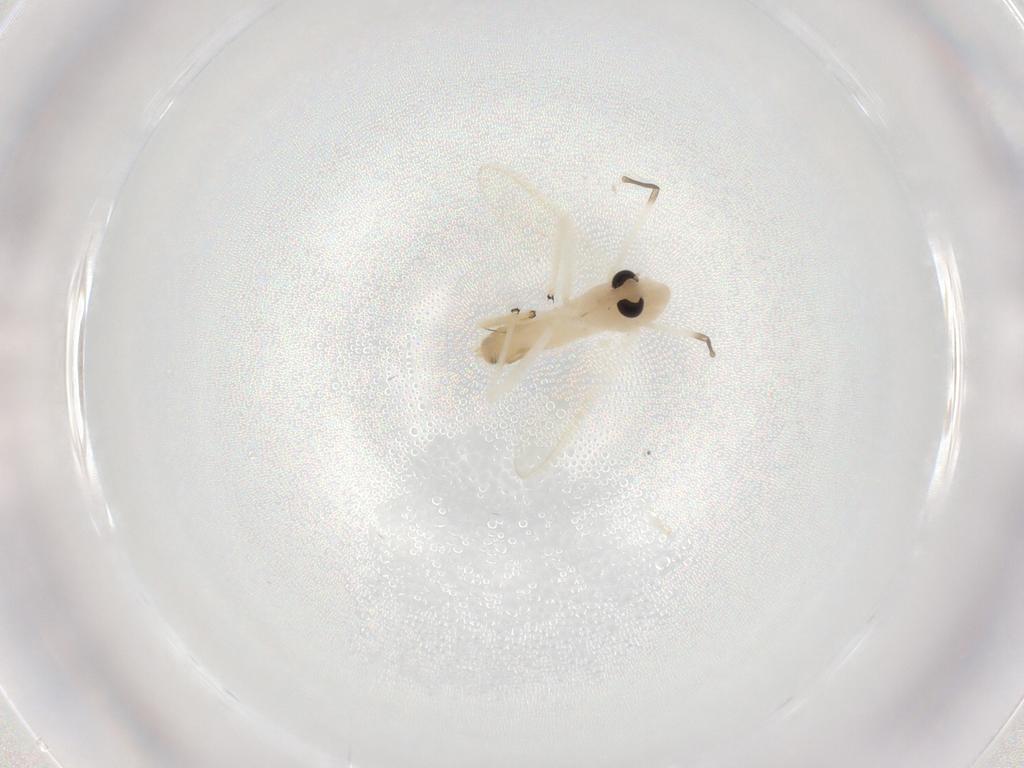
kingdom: Animalia
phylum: Arthropoda
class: Insecta
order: Diptera
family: Chironomidae
